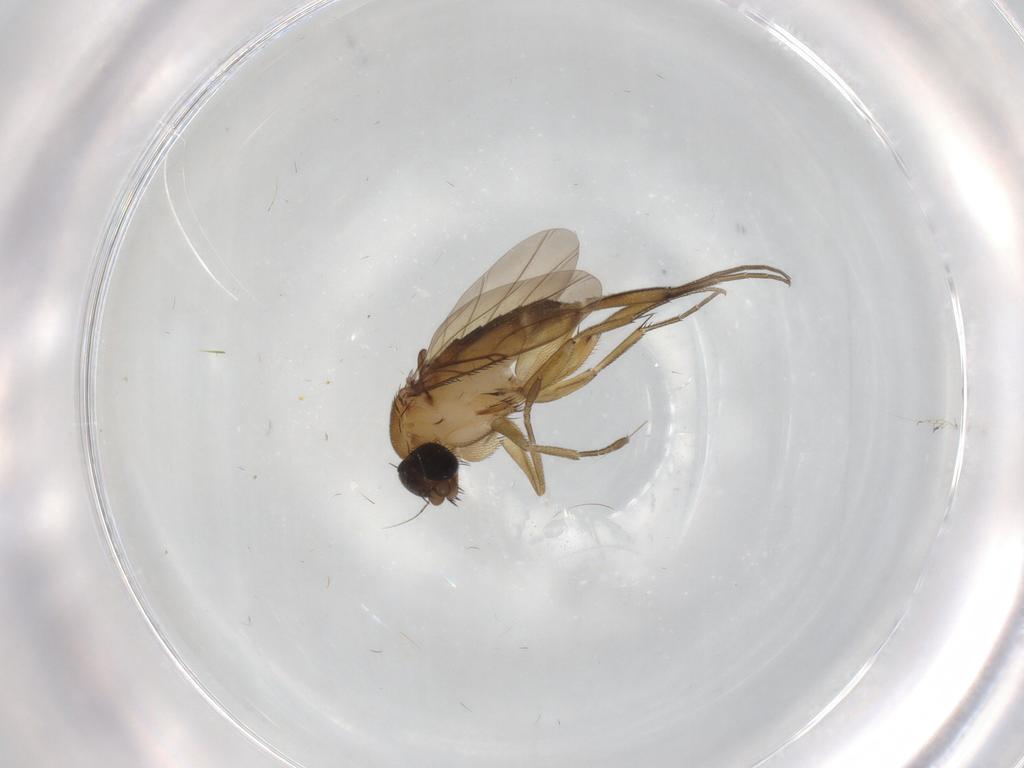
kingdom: Animalia
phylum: Arthropoda
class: Insecta
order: Diptera
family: Phoridae
